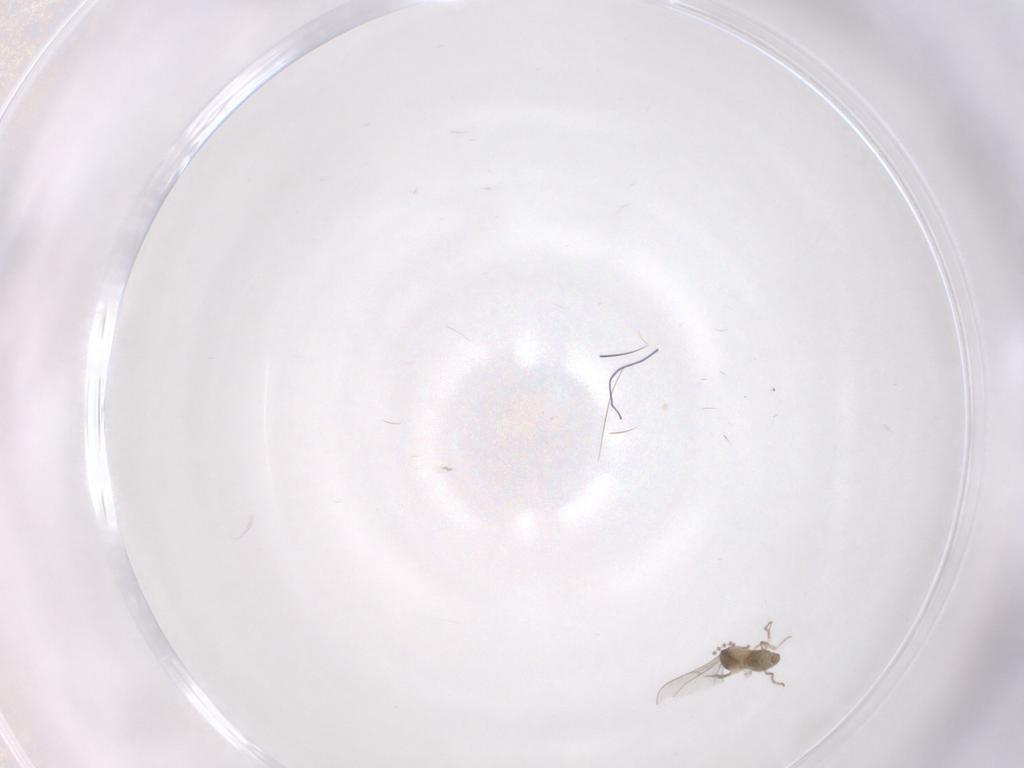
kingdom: Animalia
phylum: Arthropoda
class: Insecta
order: Diptera
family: Cecidomyiidae
